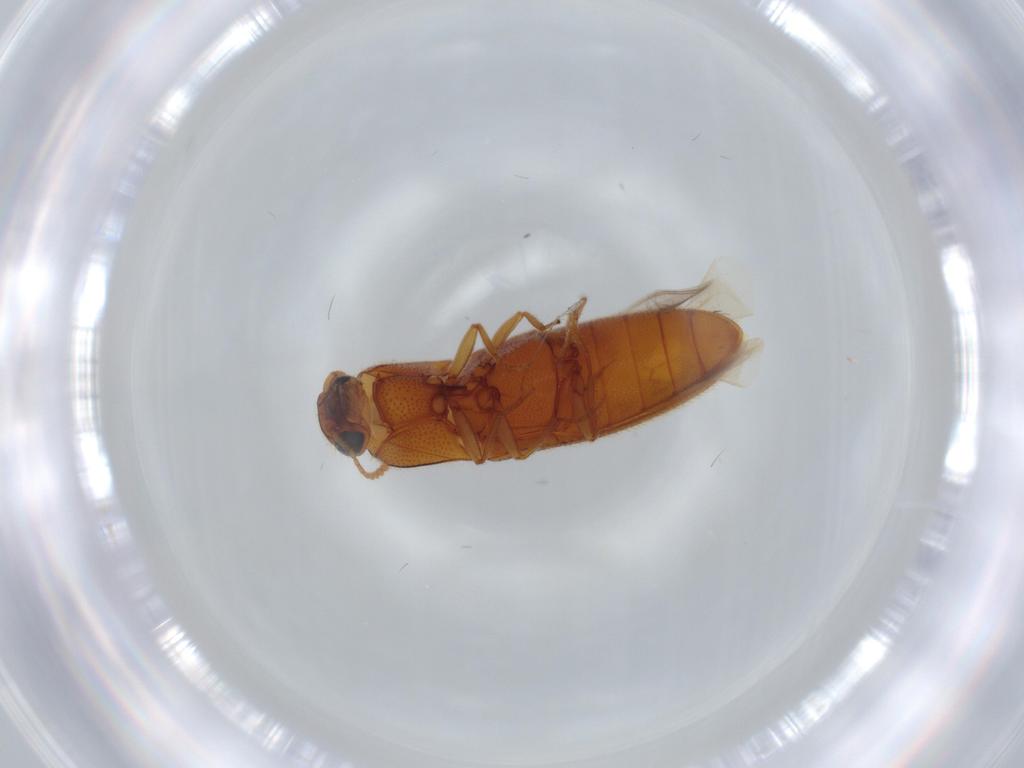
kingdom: Animalia
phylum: Arthropoda
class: Insecta
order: Coleoptera
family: Elateridae
